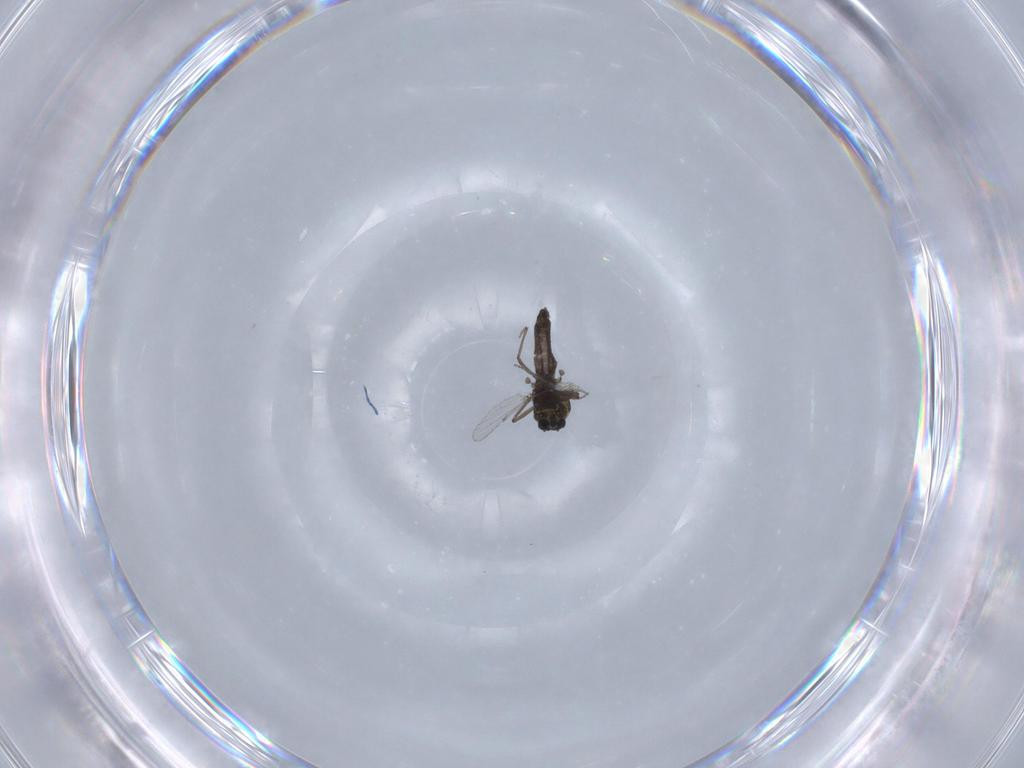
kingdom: Animalia
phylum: Arthropoda
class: Insecta
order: Diptera
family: Ceratopogonidae
